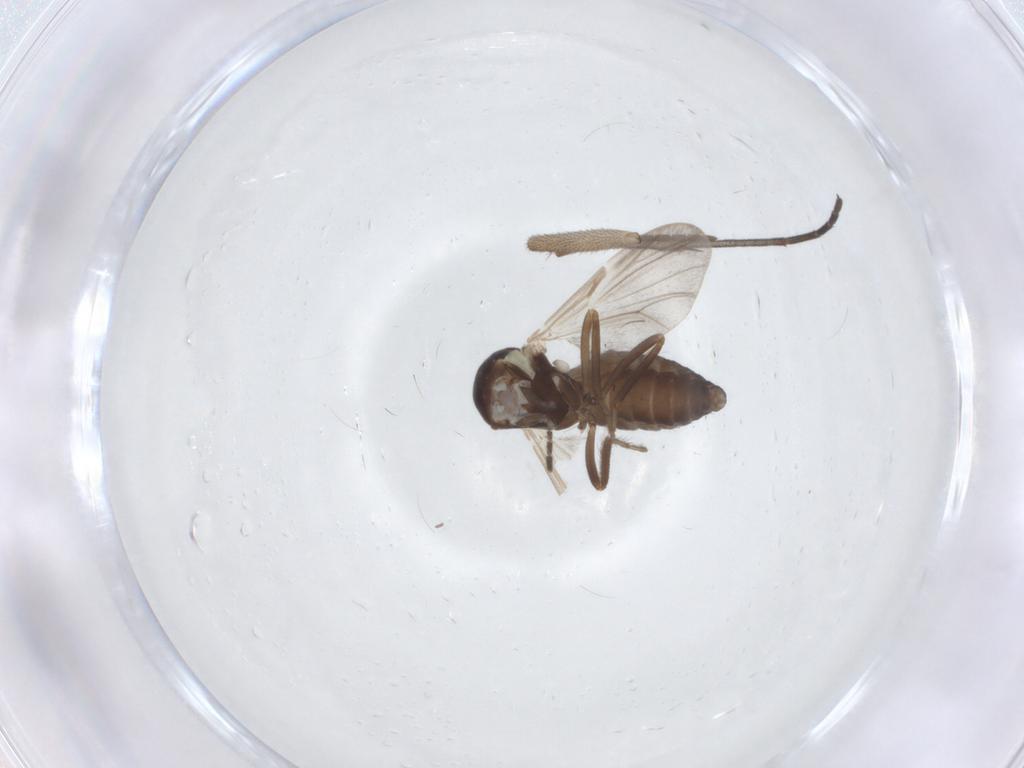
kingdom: Animalia
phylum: Arthropoda
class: Insecta
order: Diptera
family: Ceratopogonidae
